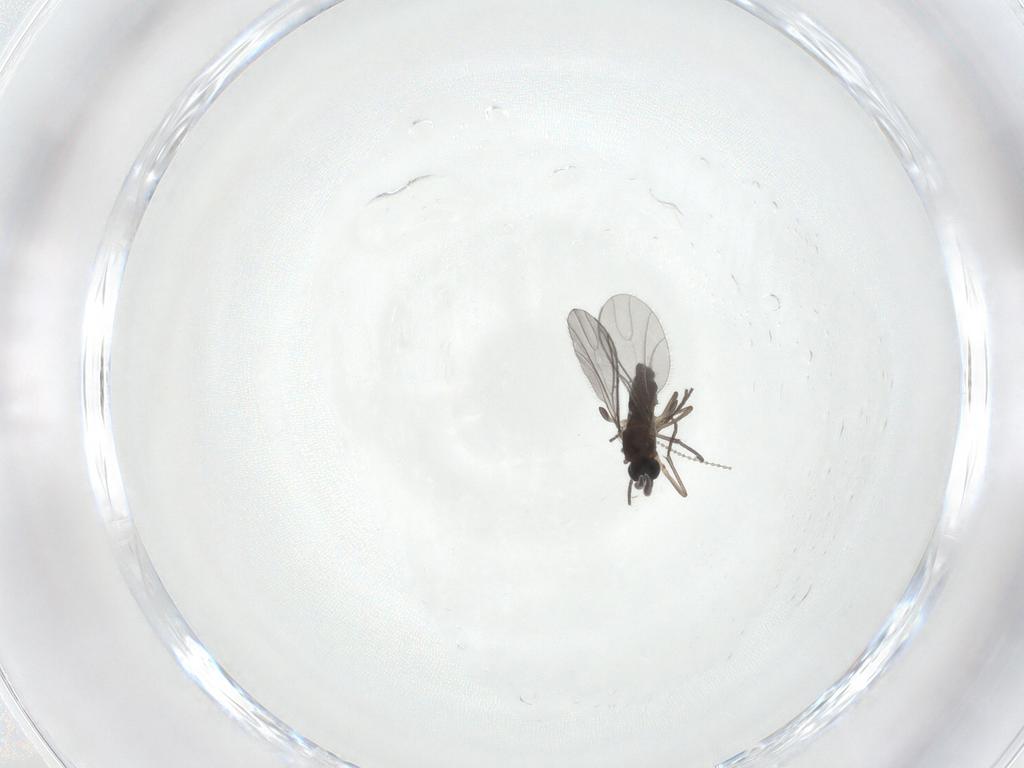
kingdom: Animalia
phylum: Arthropoda
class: Insecta
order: Diptera
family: Sciaridae
